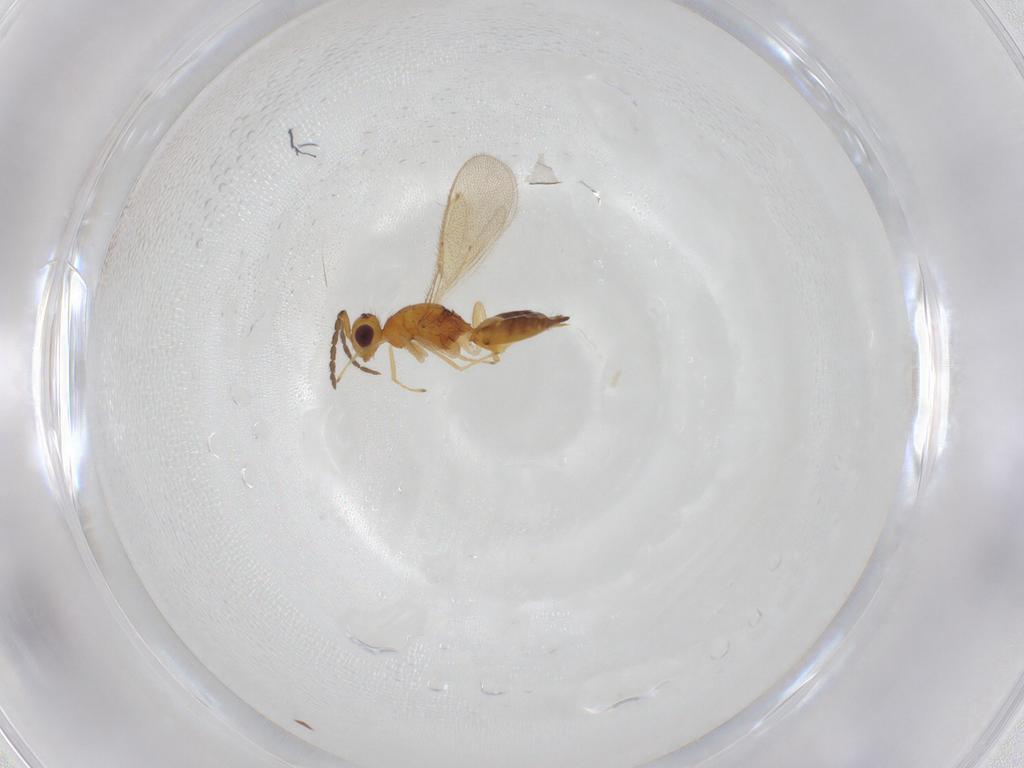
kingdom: Animalia
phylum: Arthropoda
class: Insecta
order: Hymenoptera
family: Eulophidae
